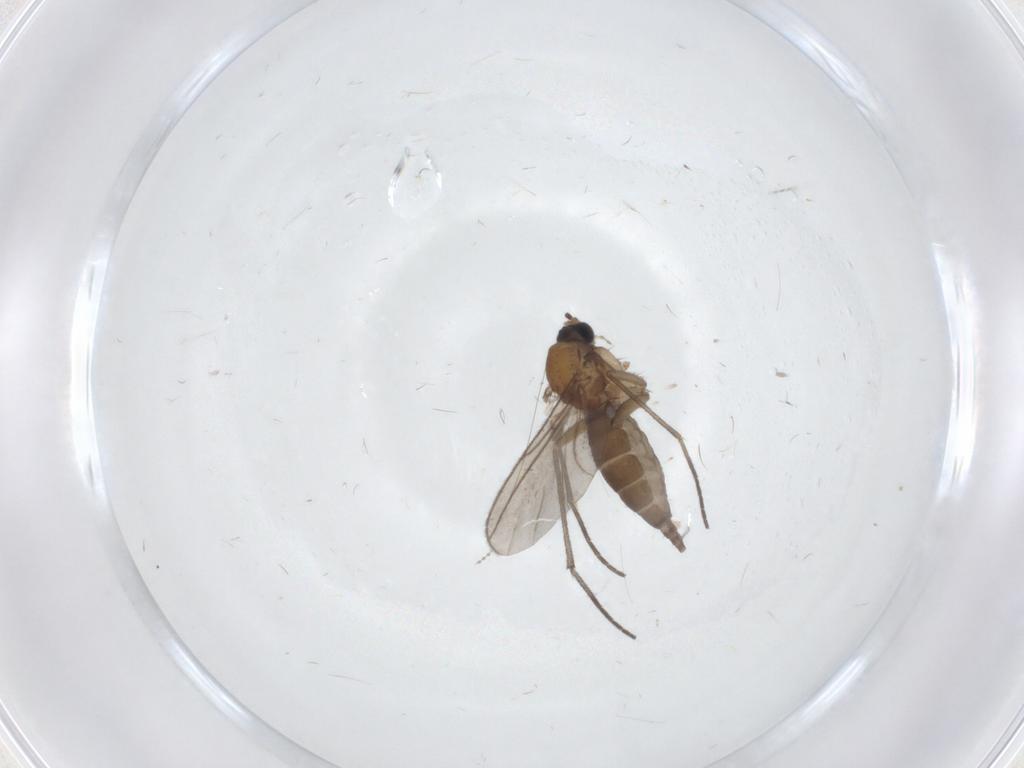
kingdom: Animalia
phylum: Arthropoda
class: Insecta
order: Diptera
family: Sciaridae
